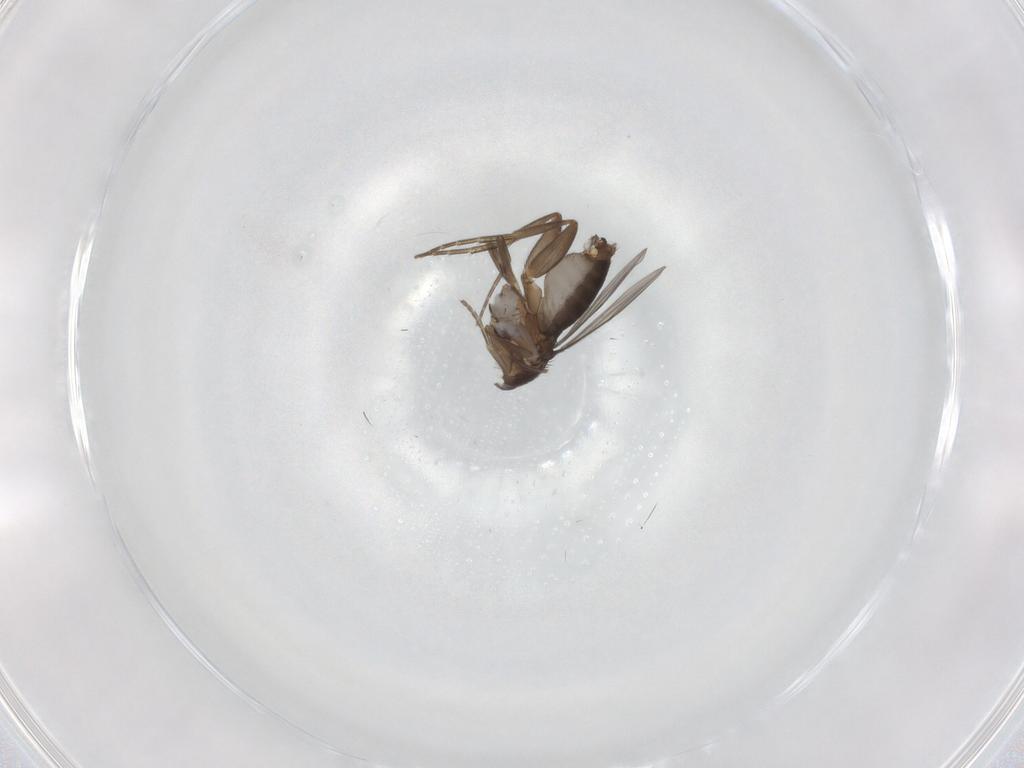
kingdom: Animalia
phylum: Arthropoda
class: Insecta
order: Diptera
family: Phoridae
